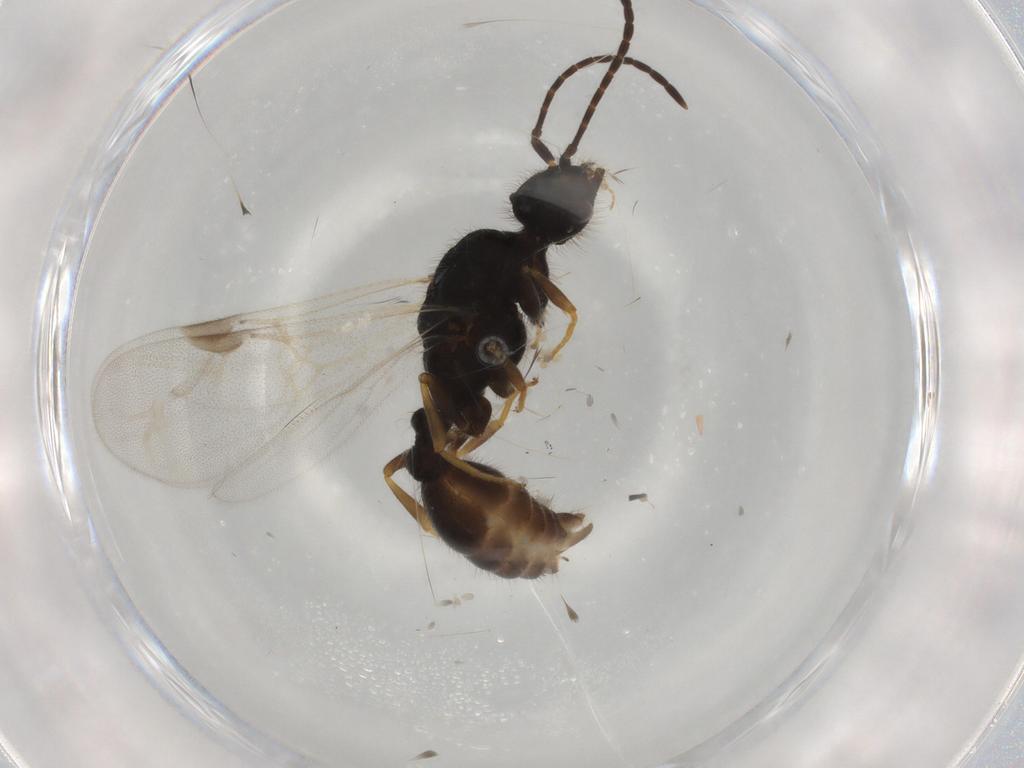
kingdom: Animalia
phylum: Arthropoda
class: Insecta
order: Hymenoptera
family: Formicidae
